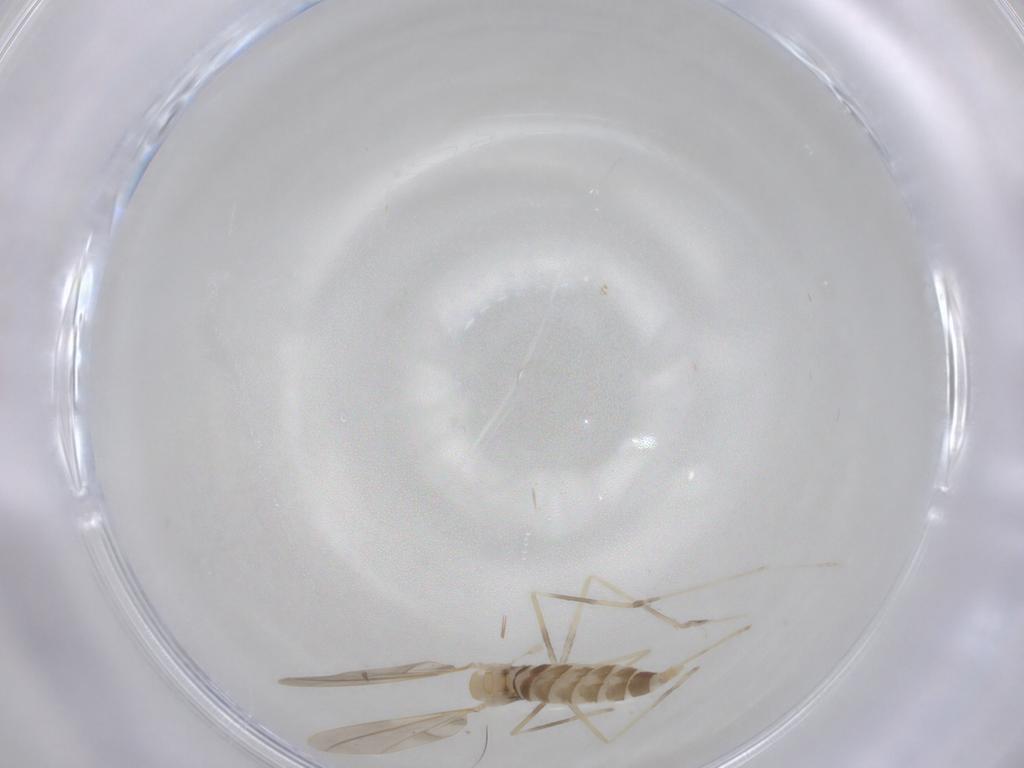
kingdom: Animalia
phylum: Arthropoda
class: Insecta
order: Diptera
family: Cecidomyiidae
